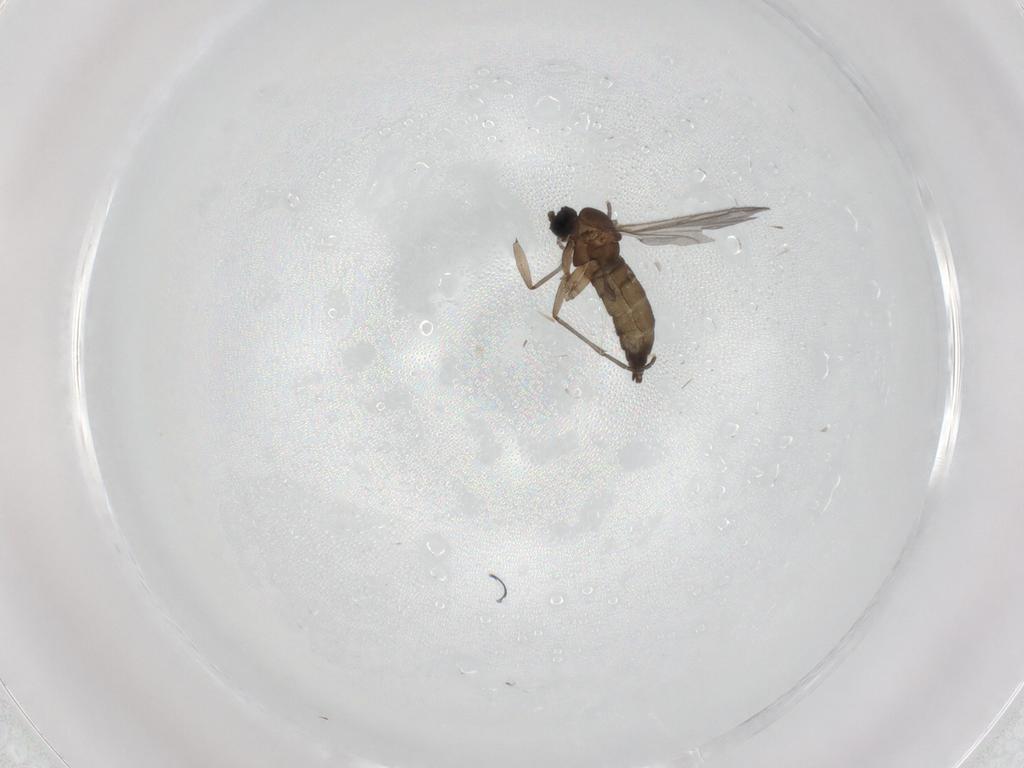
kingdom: Animalia
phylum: Arthropoda
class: Insecta
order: Diptera
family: Sciaridae
